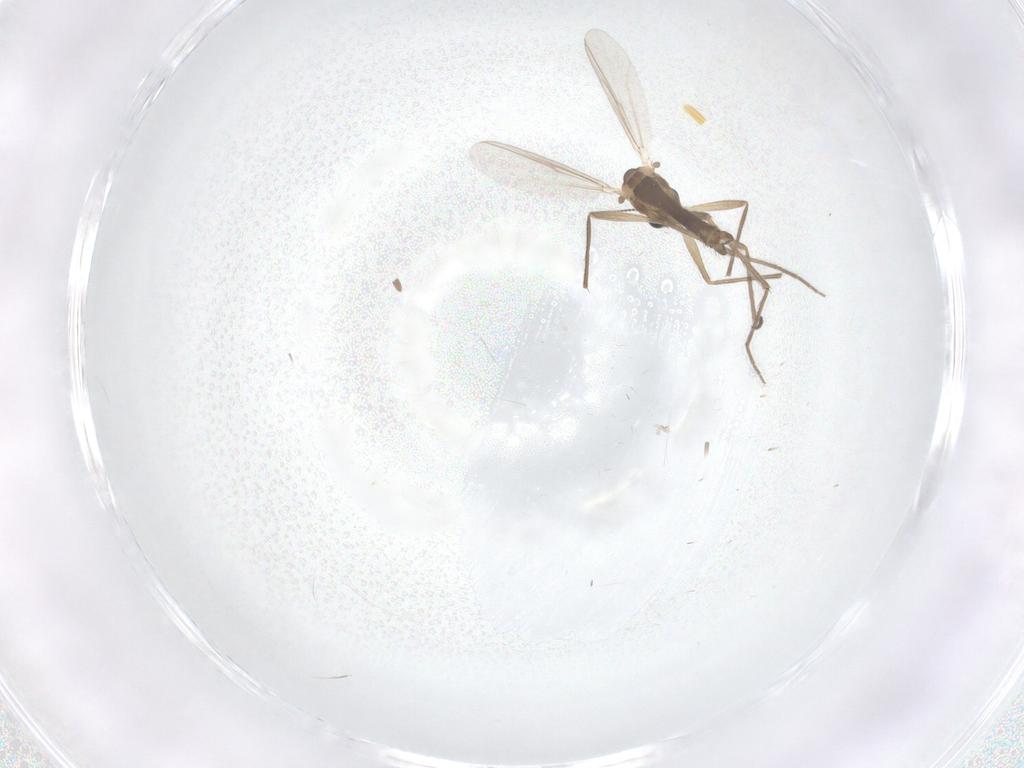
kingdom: Animalia
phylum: Arthropoda
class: Insecta
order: Diptera
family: Chironomidae
